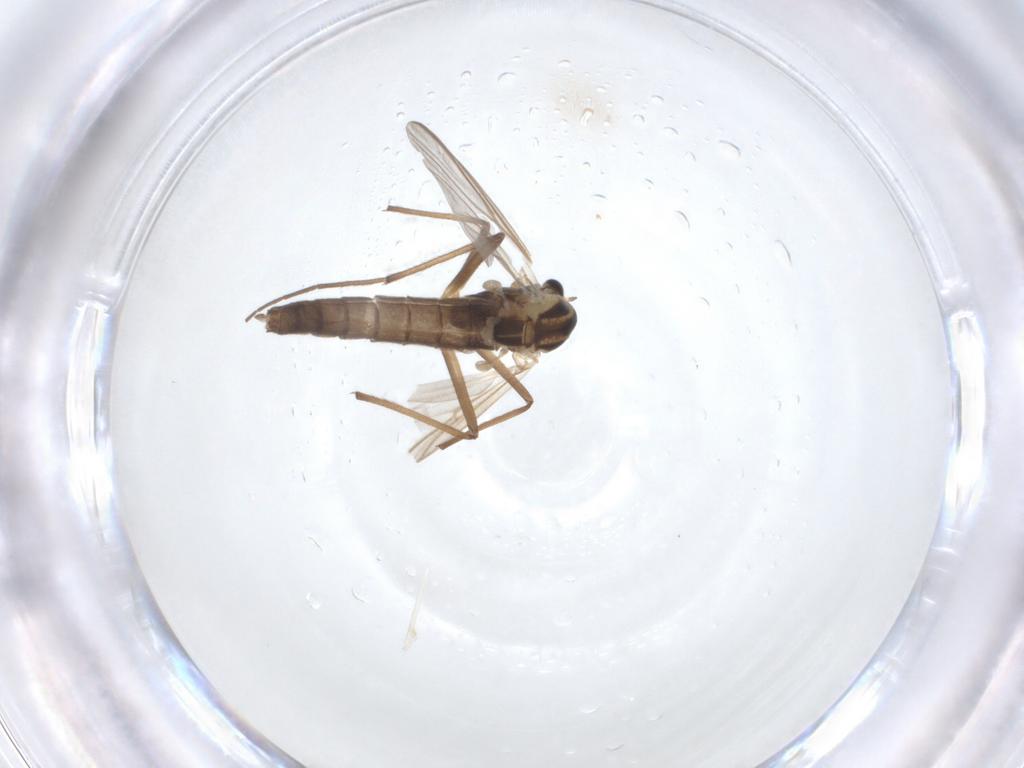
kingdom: Animalia
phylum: Arthropoda
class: Insecta
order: Diptera
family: Chironomidae
